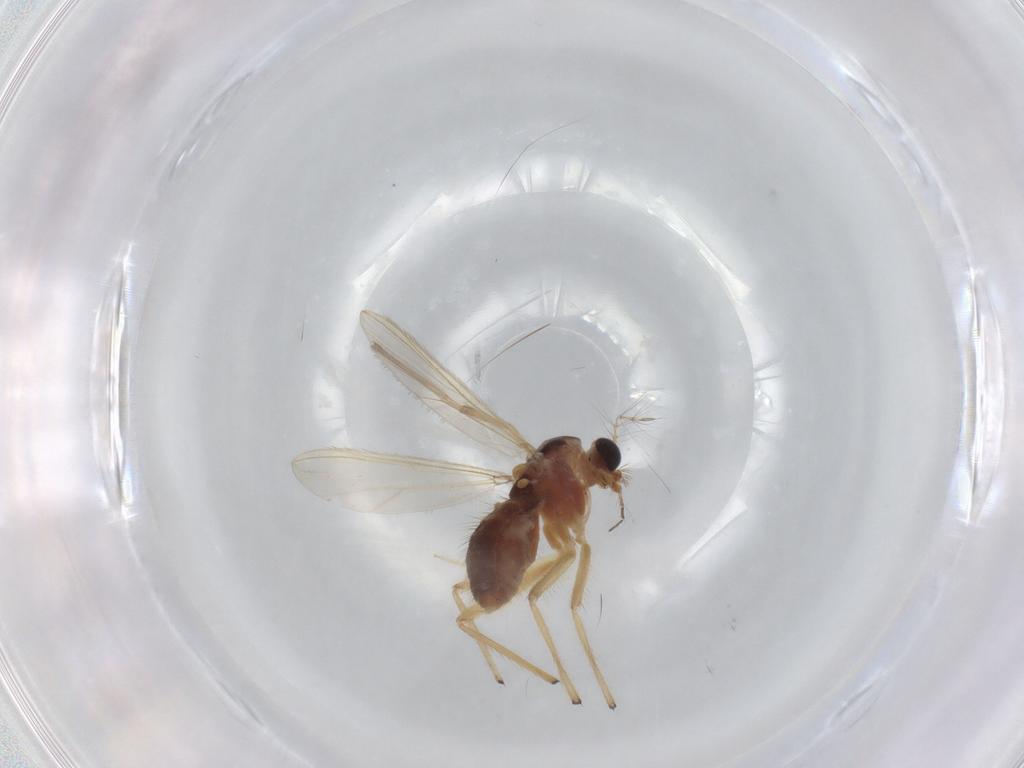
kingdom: Animalia
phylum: Arthropoda
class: Insecta
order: Diptera
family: Chironomidae
